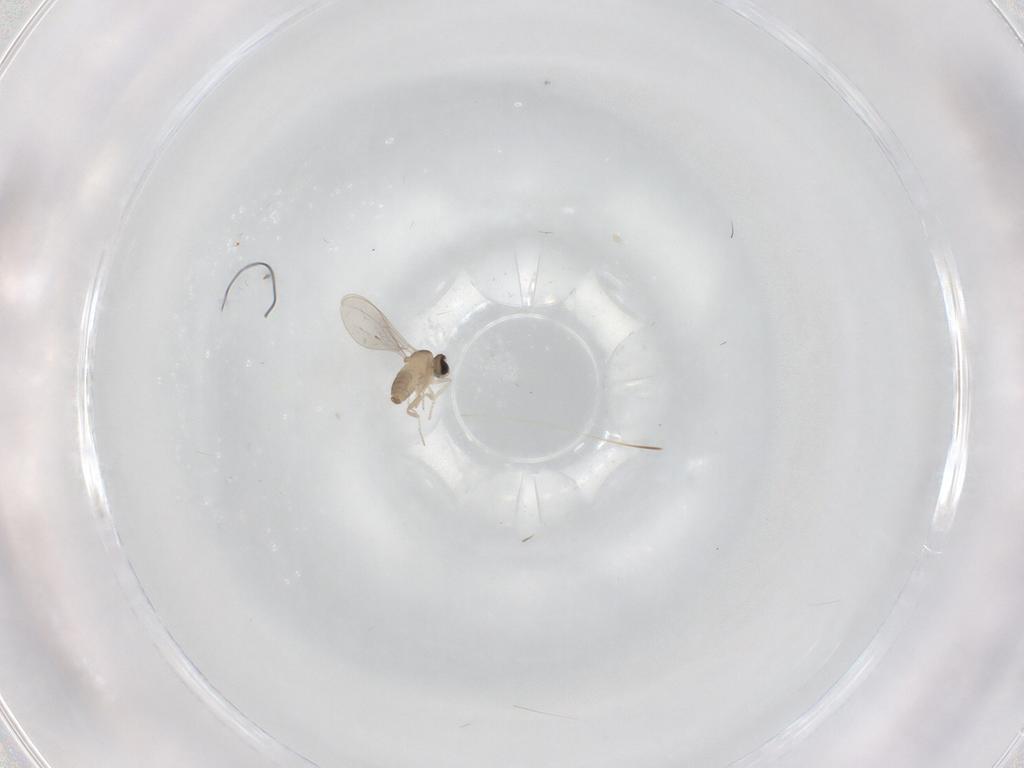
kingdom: Animalia
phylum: Arthropoda
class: Insecta
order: Diptera
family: Cecidomyiidae
